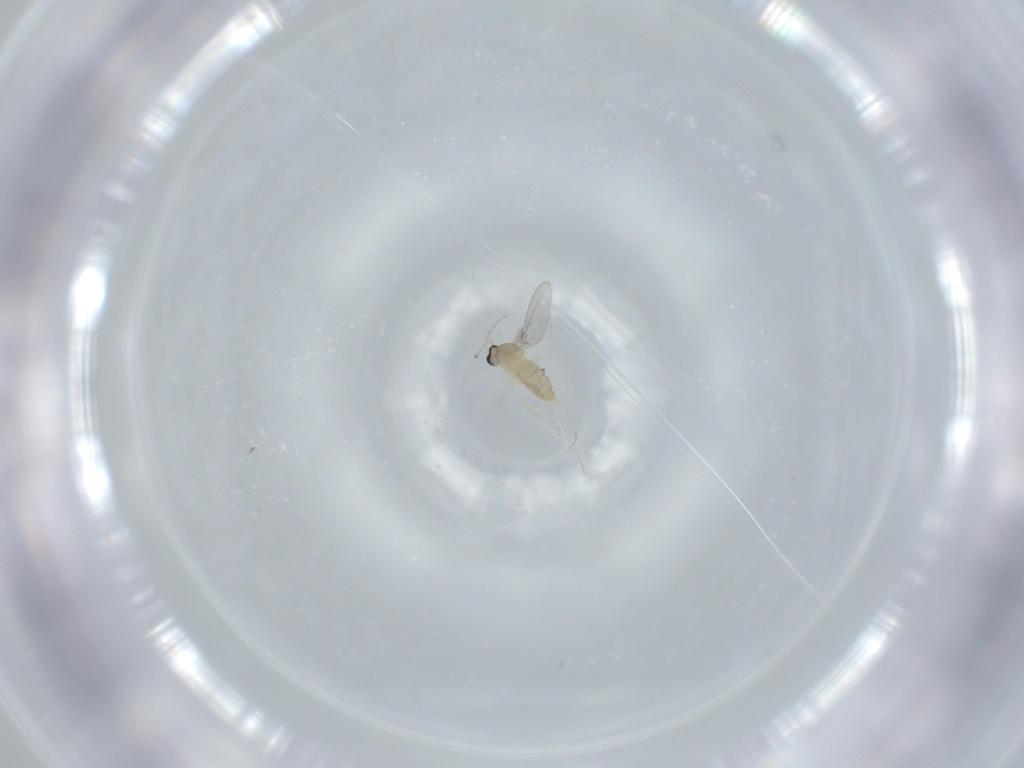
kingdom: Animalia
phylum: Arthropoda
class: Insecta
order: Diptera
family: Cecidomyiidae
